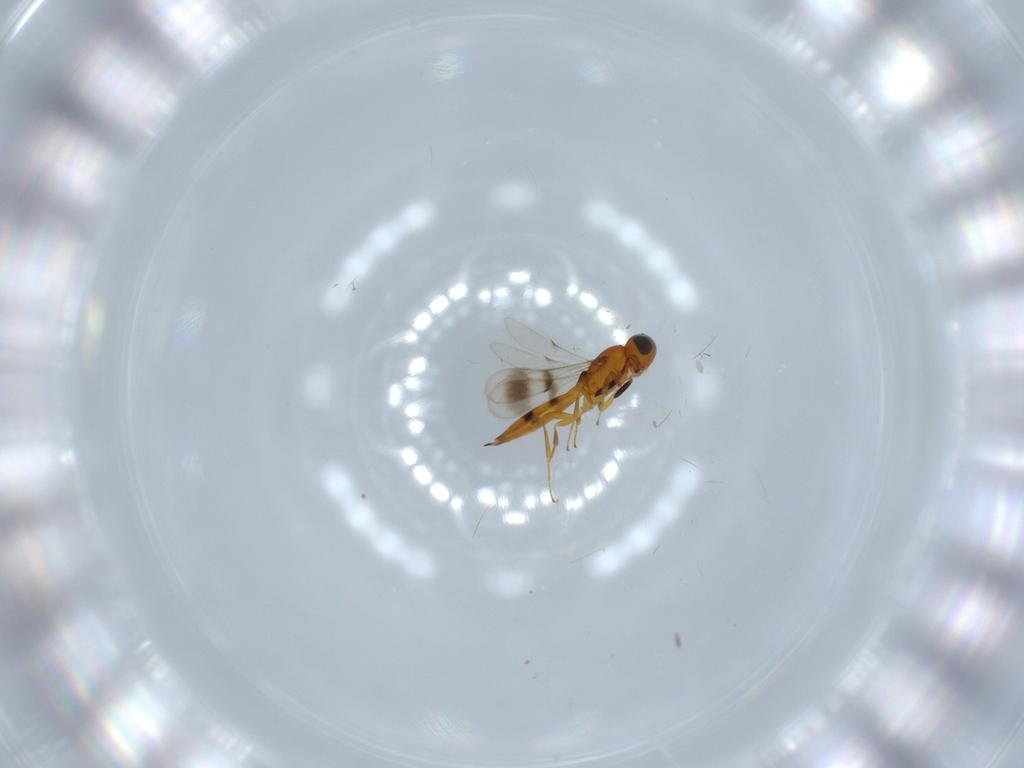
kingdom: Animalia
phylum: Arthropoda
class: Insecta
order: Hymenoptera
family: Scelionidae
